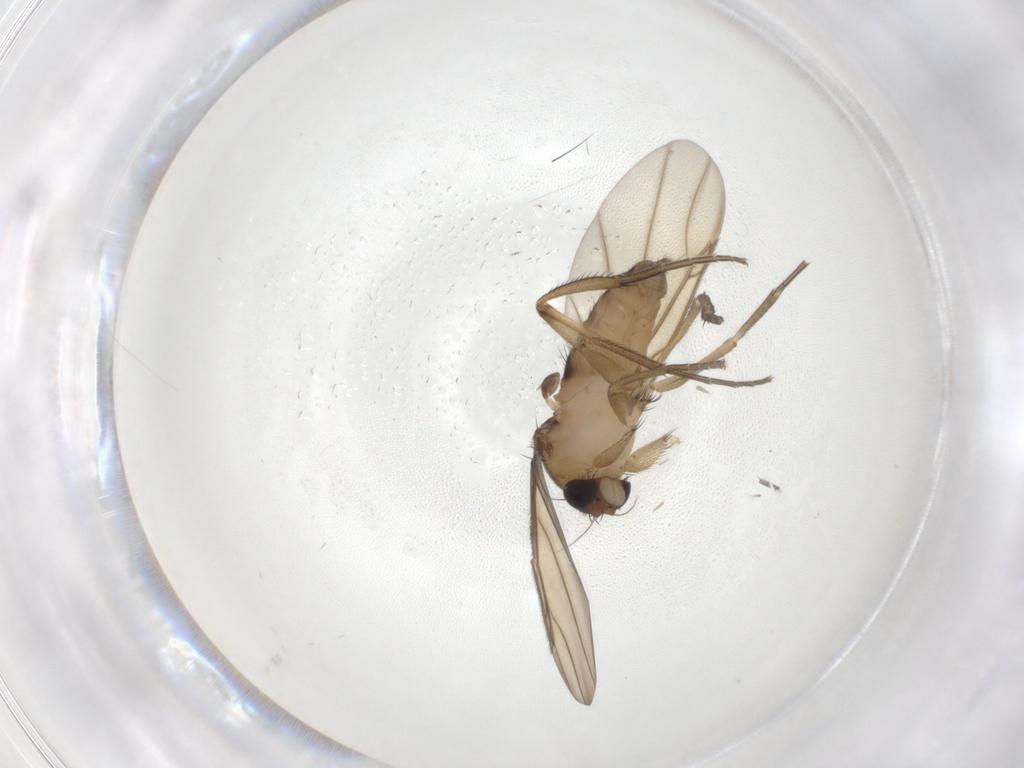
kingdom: Animalia
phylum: Arthropoda
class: Insecta
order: Diptera
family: Phoridae
